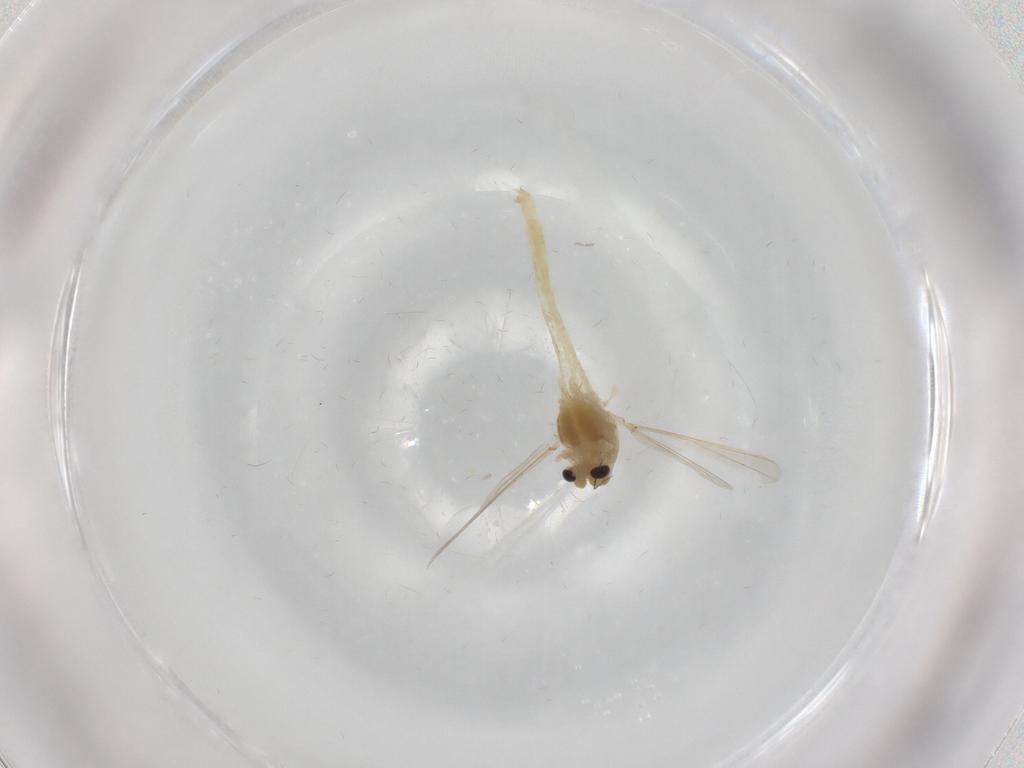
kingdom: Animalia
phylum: Arthropoda
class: Insecta
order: Diptera
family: Chironomidae
